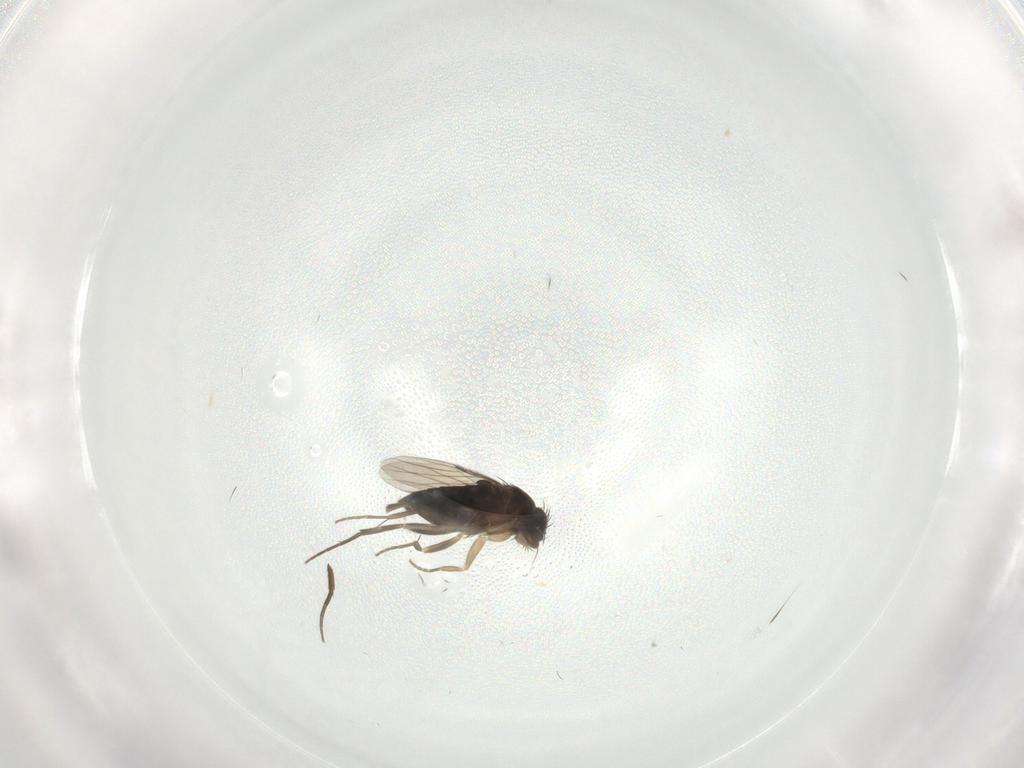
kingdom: Animalia
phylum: Arthropoda
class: Insecta
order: Diptera
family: Phoridae
